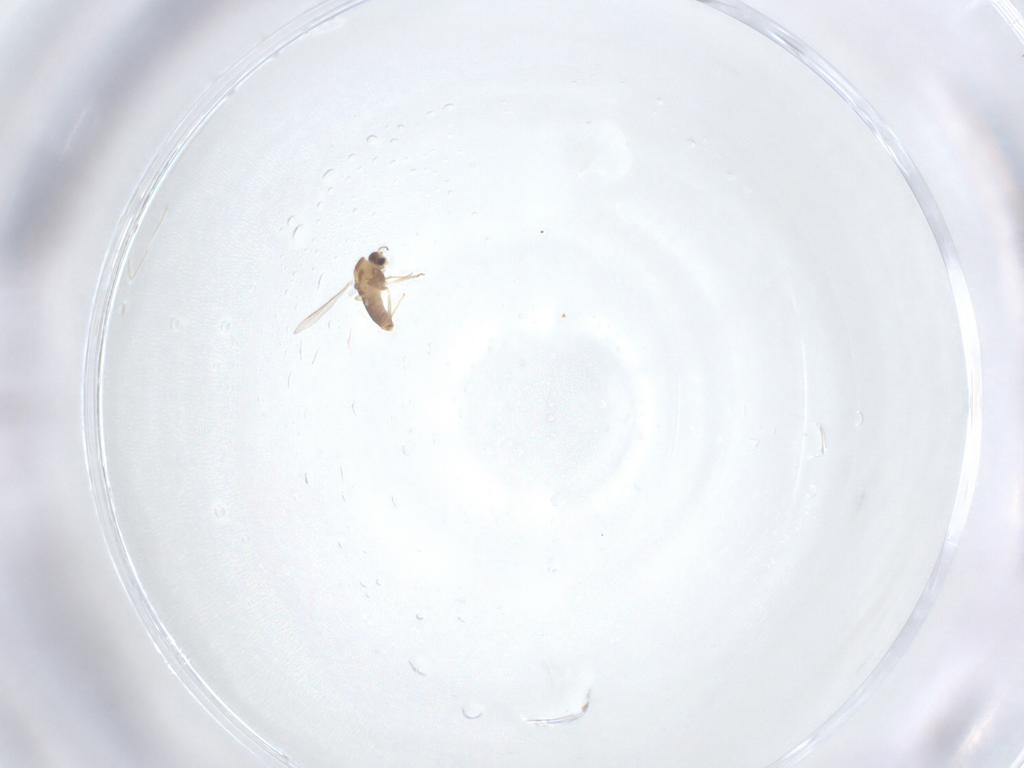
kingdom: Animalia
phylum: Arthropoda
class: Insecta
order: Diptera
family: Chironomidae
